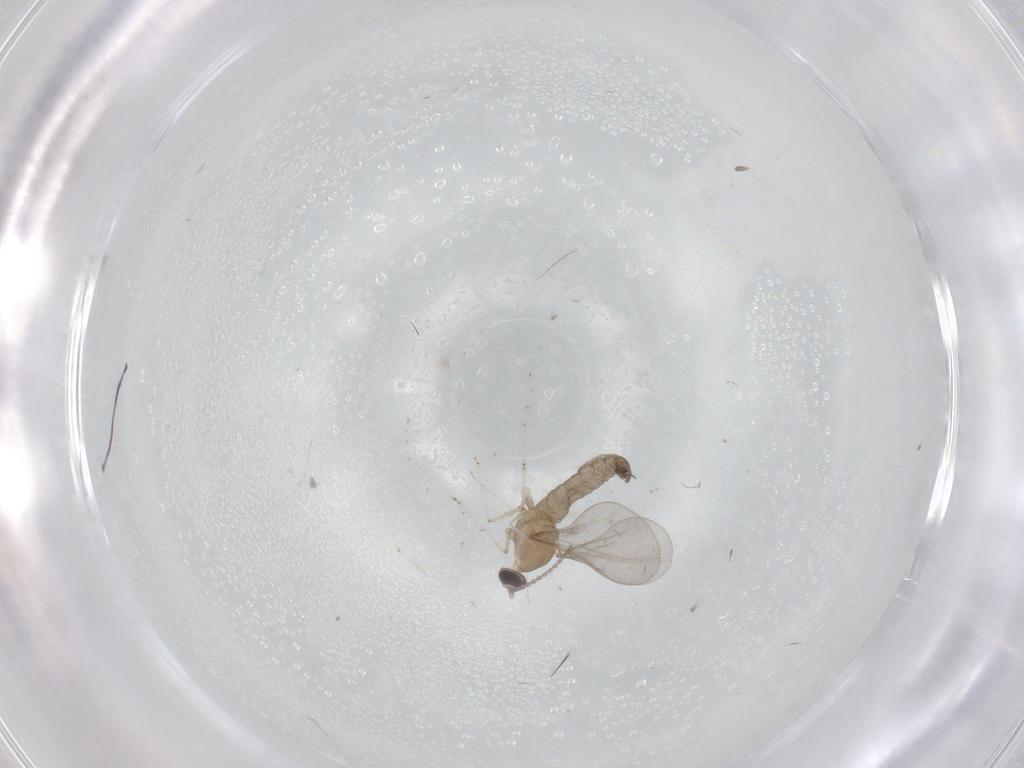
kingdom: Animalia
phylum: Arthropoda
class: Insecta
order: Diptera
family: Cecidomyiidae
